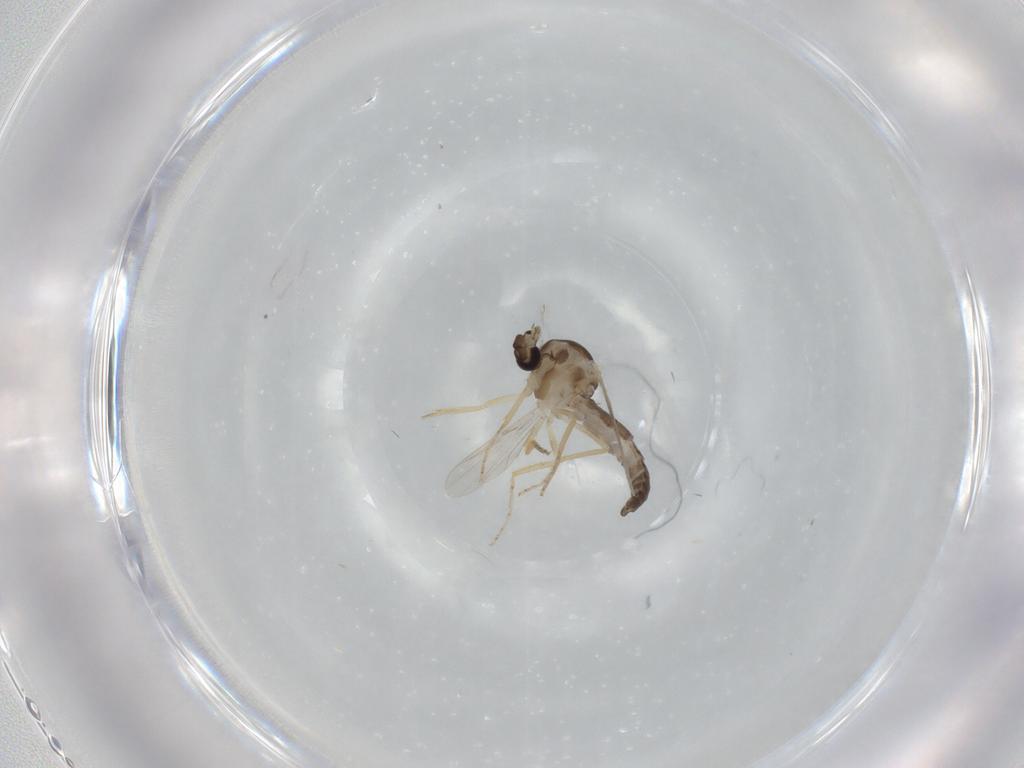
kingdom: Animalia
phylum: Arthropoda
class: Insecta
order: Diptera
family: Ceratopogonidae
